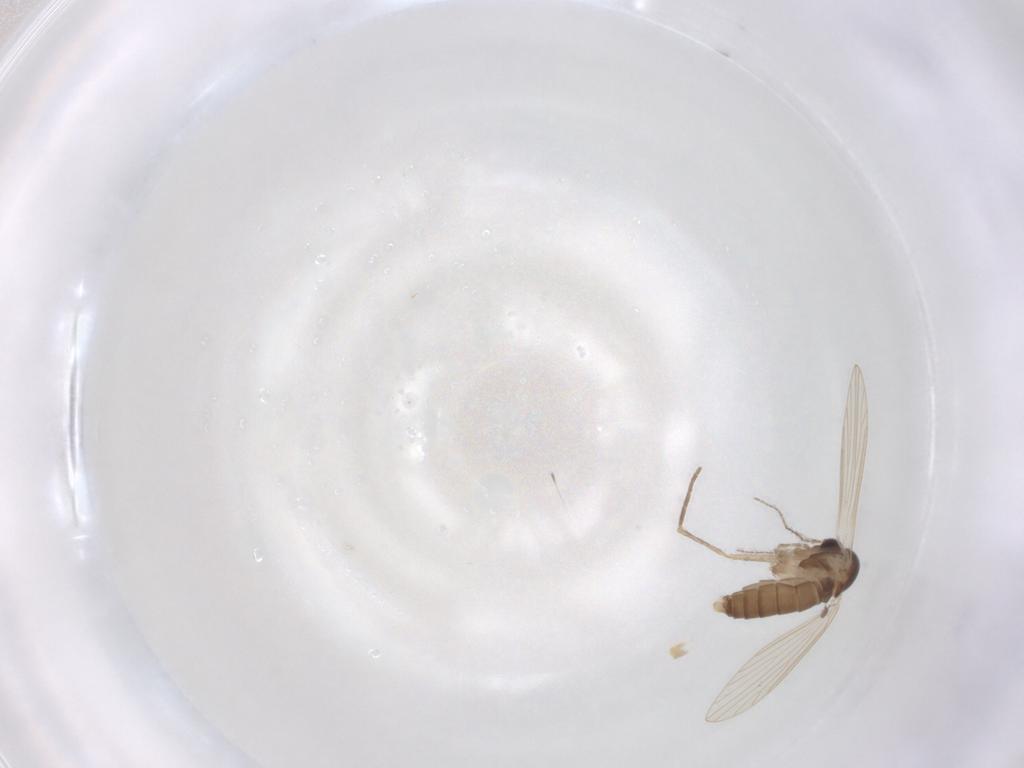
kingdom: Animalia
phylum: Arthropoda
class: Insecta
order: Diptera
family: Psychodidae
